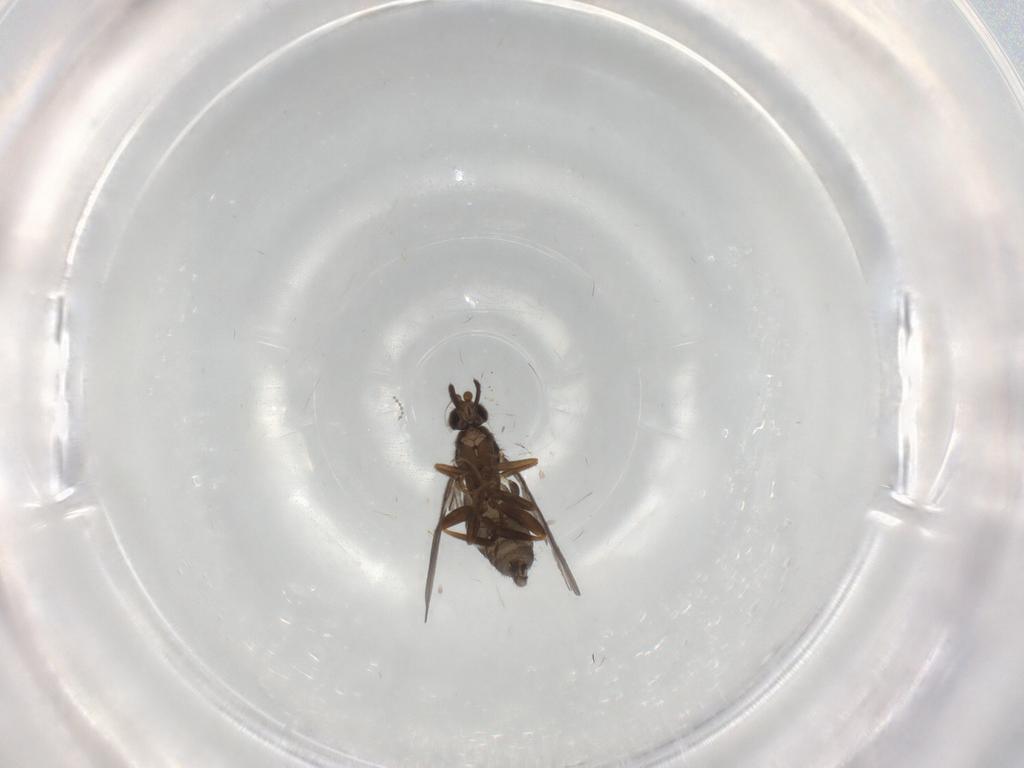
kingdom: Animalia
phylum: Arthropoda
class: Insecta
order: Diptera
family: Phoridae
